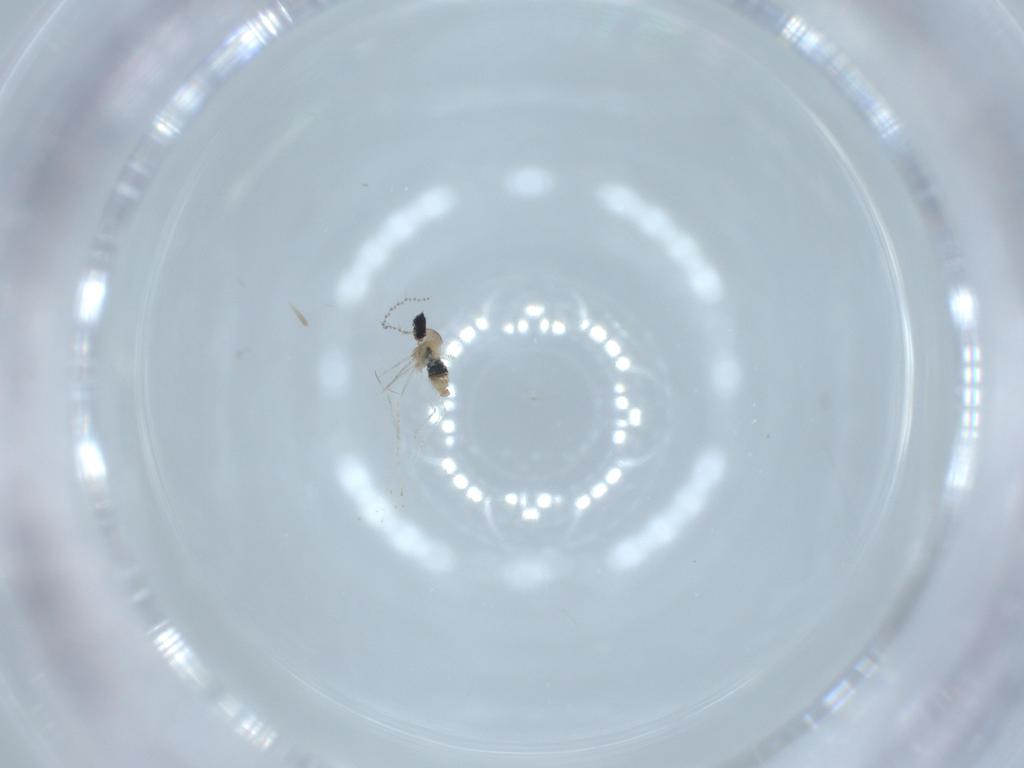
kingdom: Animalia
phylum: Arthropoda
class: Insecta
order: Diptera
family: Cecidomyiidae
